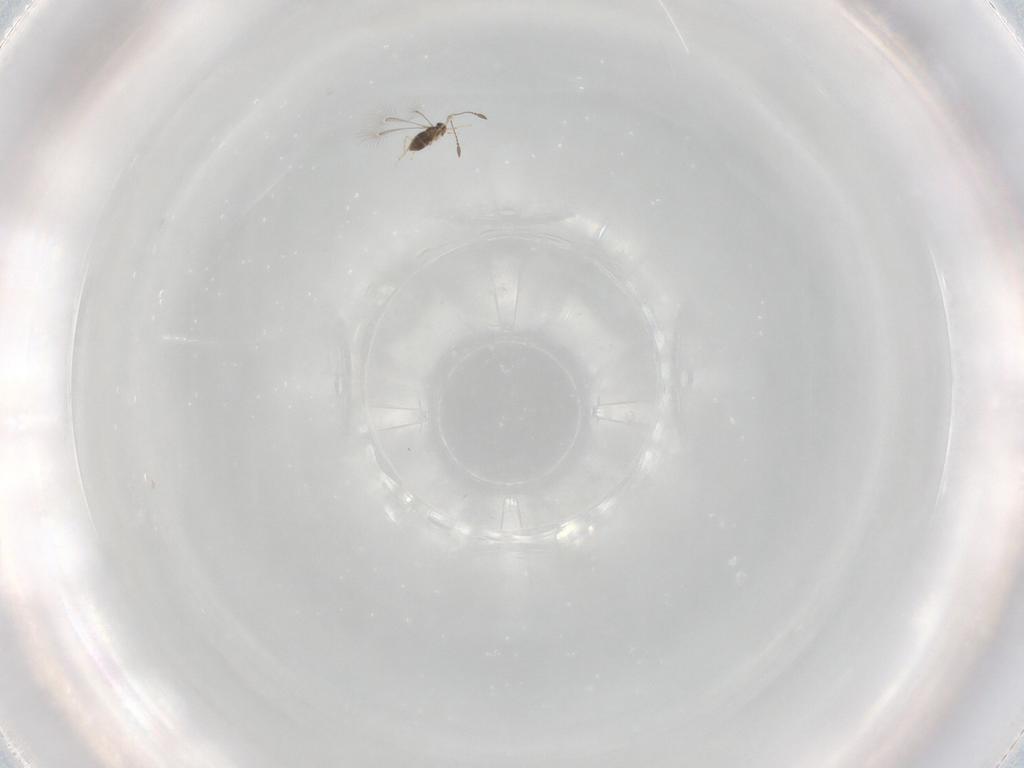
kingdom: Animalia
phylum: Arthropoda
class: Insecta
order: Hymenoptera
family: Mymaridae
